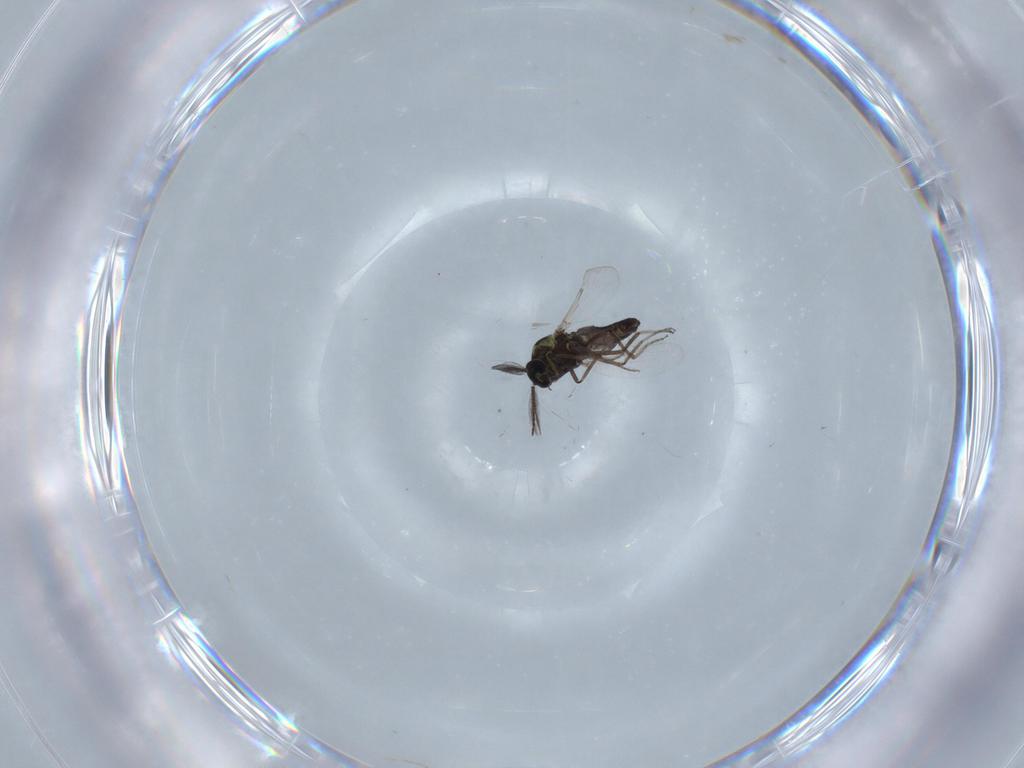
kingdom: Animalia
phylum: Arthropoda
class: Insecta
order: Diptera
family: Ceratopogonidae
